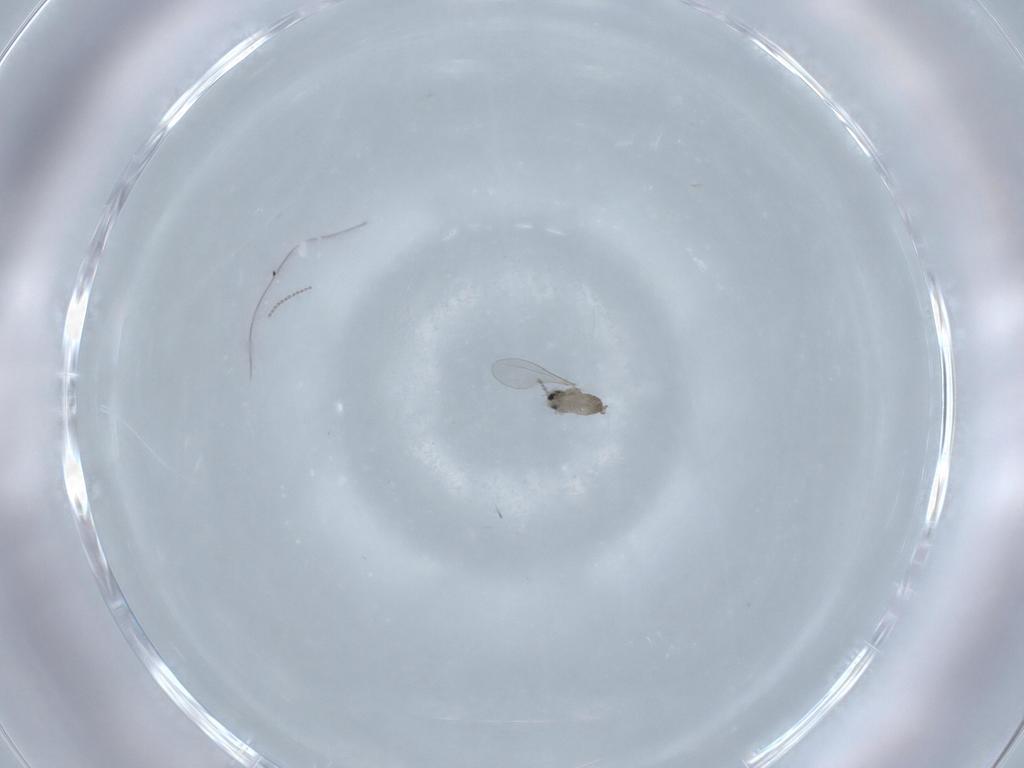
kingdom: Animalia
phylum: Arthropoda
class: Insecta
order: Diptera
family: Cecidomyiidae
